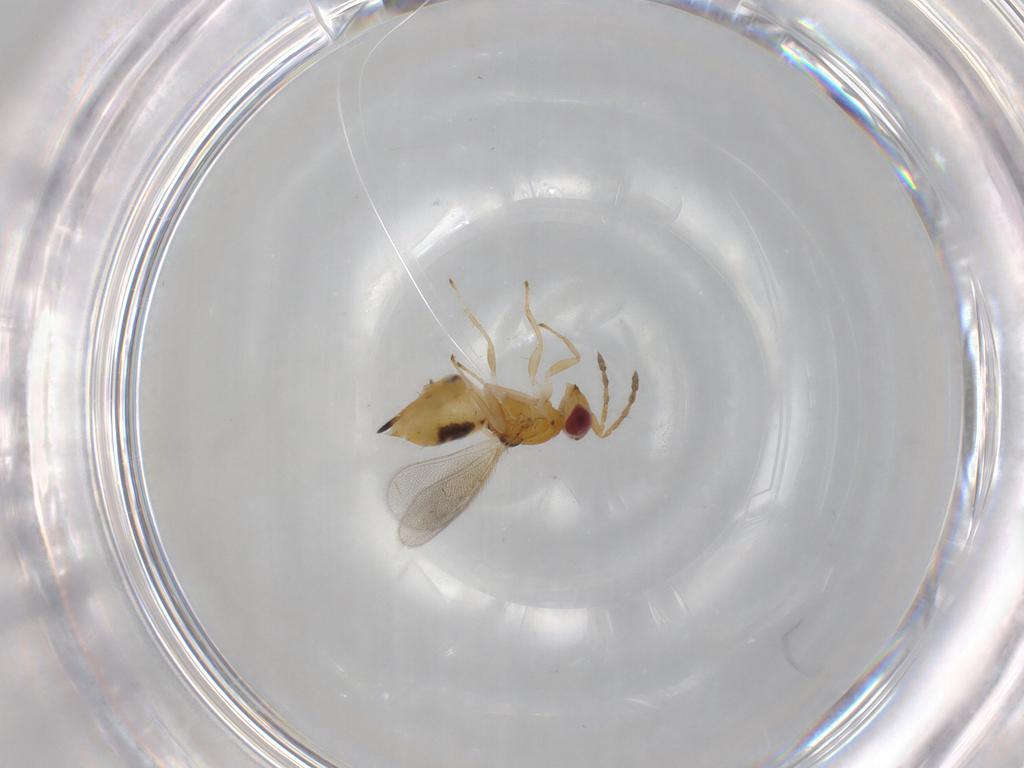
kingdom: Animalia
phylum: Arthropoda
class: Insecta
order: Hymenoptera
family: Eulophidae
